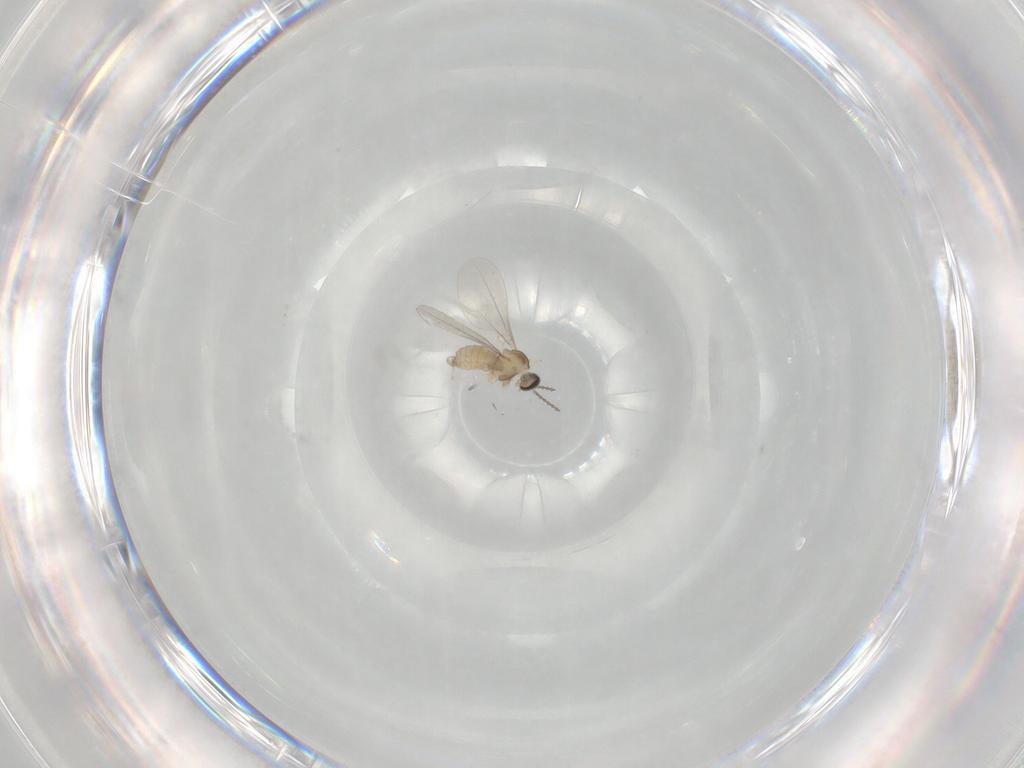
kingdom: Animalia
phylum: Arthropoda
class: Insecta
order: Diptera
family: Cecidomyiidae
